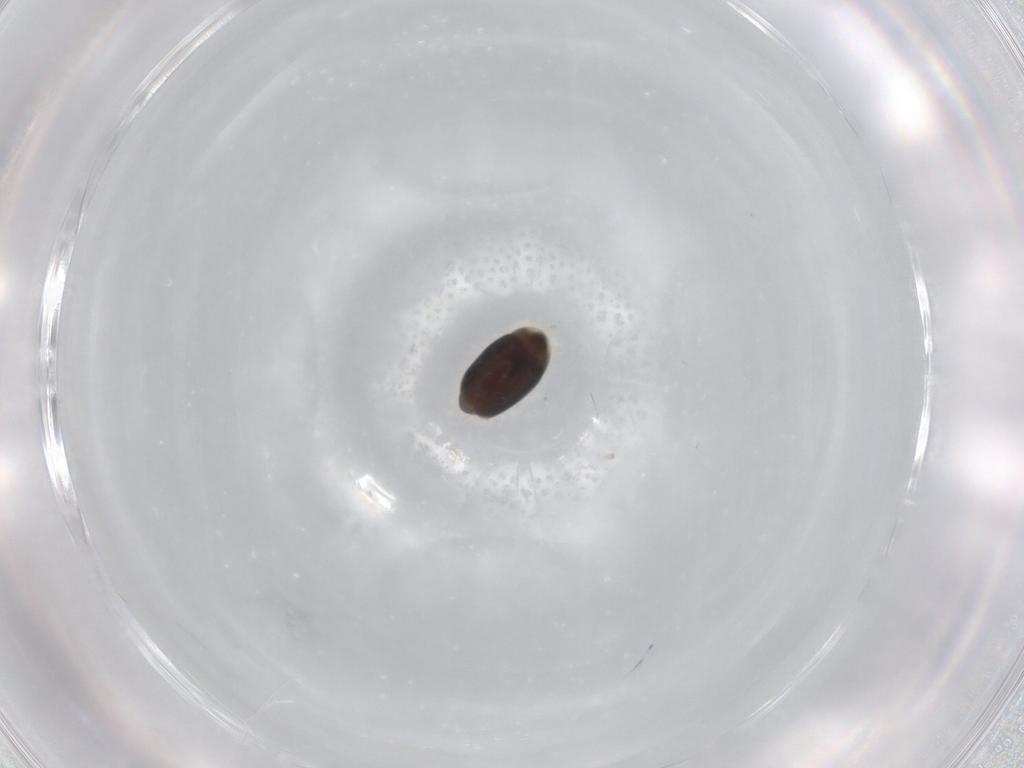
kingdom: Animalia
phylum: Arthropoda
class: Insecta
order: Coleoptera
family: Corylophidae
